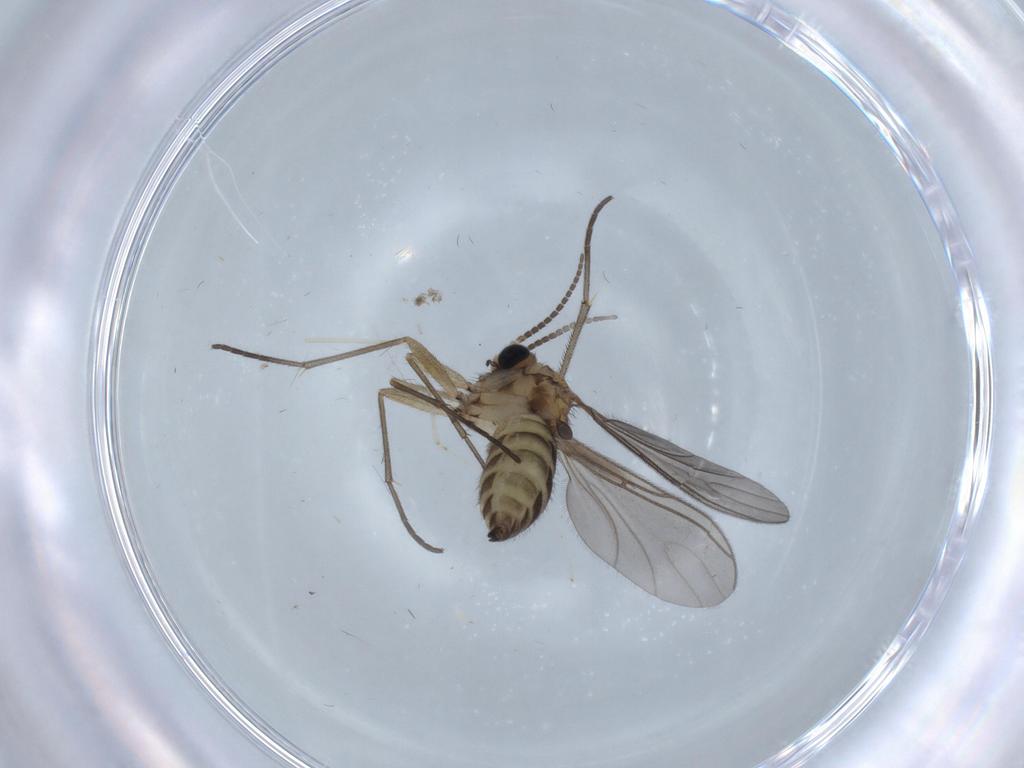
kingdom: Animalia
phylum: Arthropoda
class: Insecta
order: Diptera
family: Sciaridae
